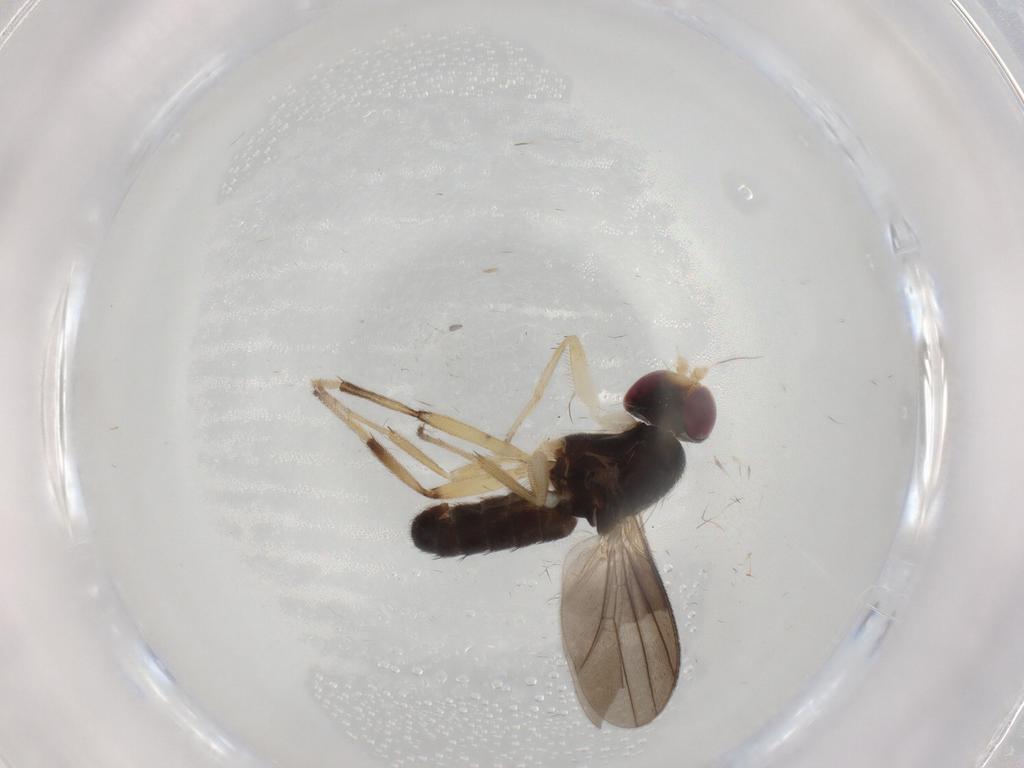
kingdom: Animalia
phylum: Arthropoda
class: Insecta
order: Diptera
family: Clusiidae
